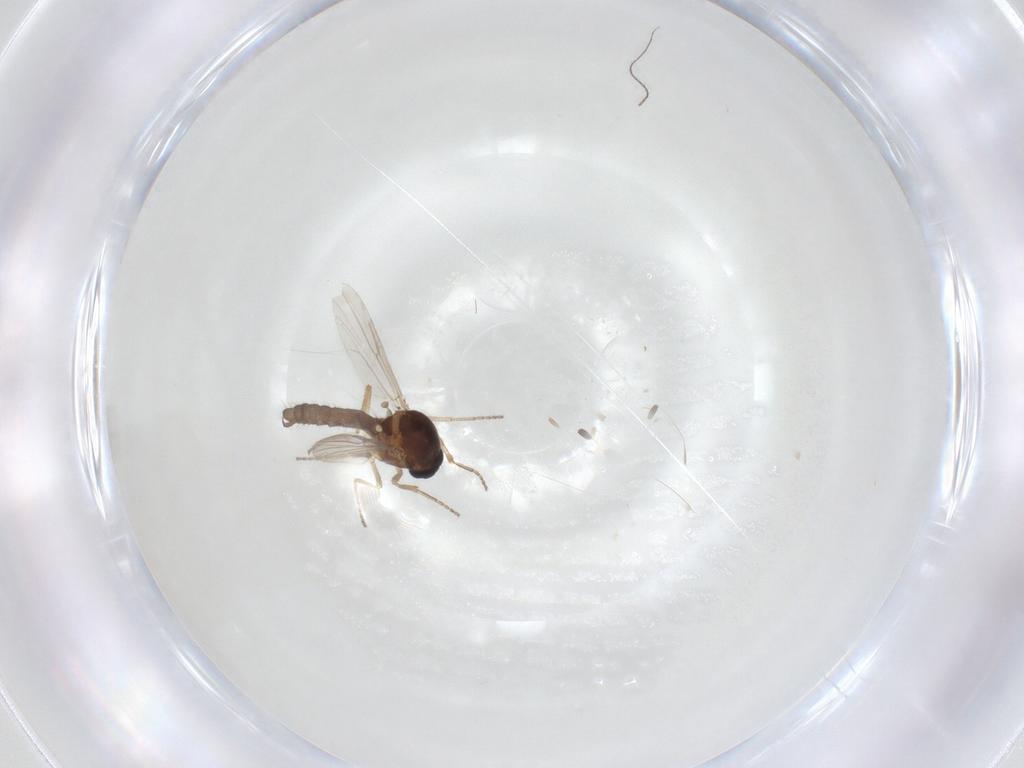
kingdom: Animalia
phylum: Arthropoda
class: Insecta
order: Diptera
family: Ceratopogonidae
